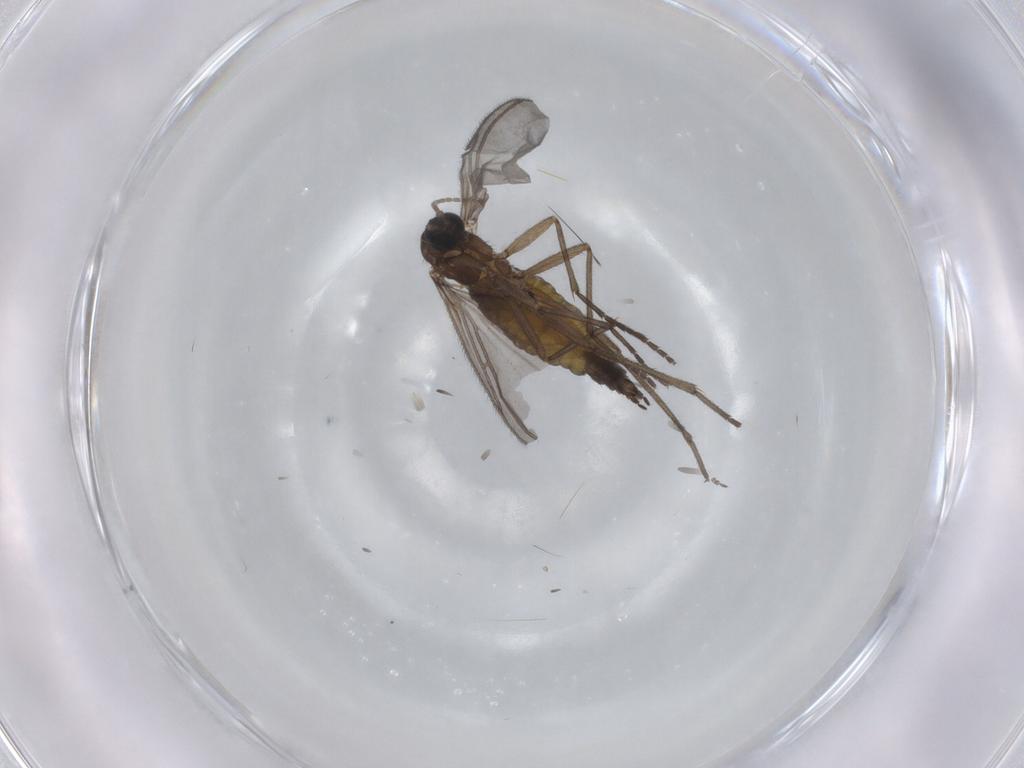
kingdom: Animalia
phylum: Arthropoda
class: Insecta
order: Diptera
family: Sciaridae
